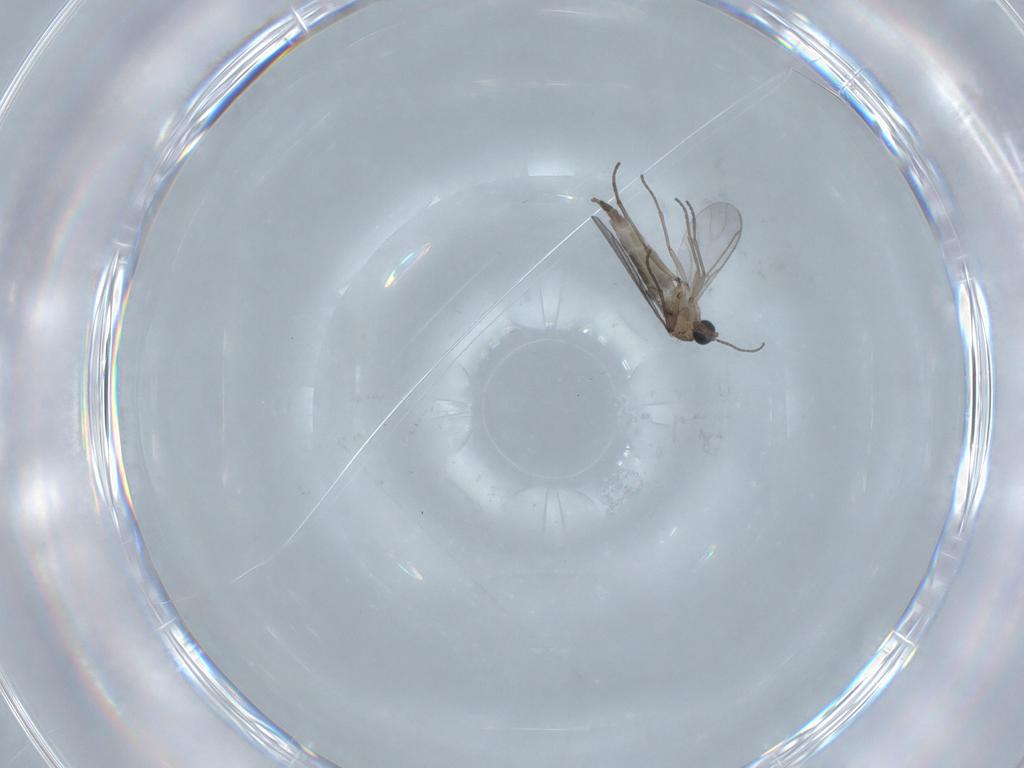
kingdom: Animalia
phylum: Arthropoda
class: Insecta
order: Diptera
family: Sciaridae
